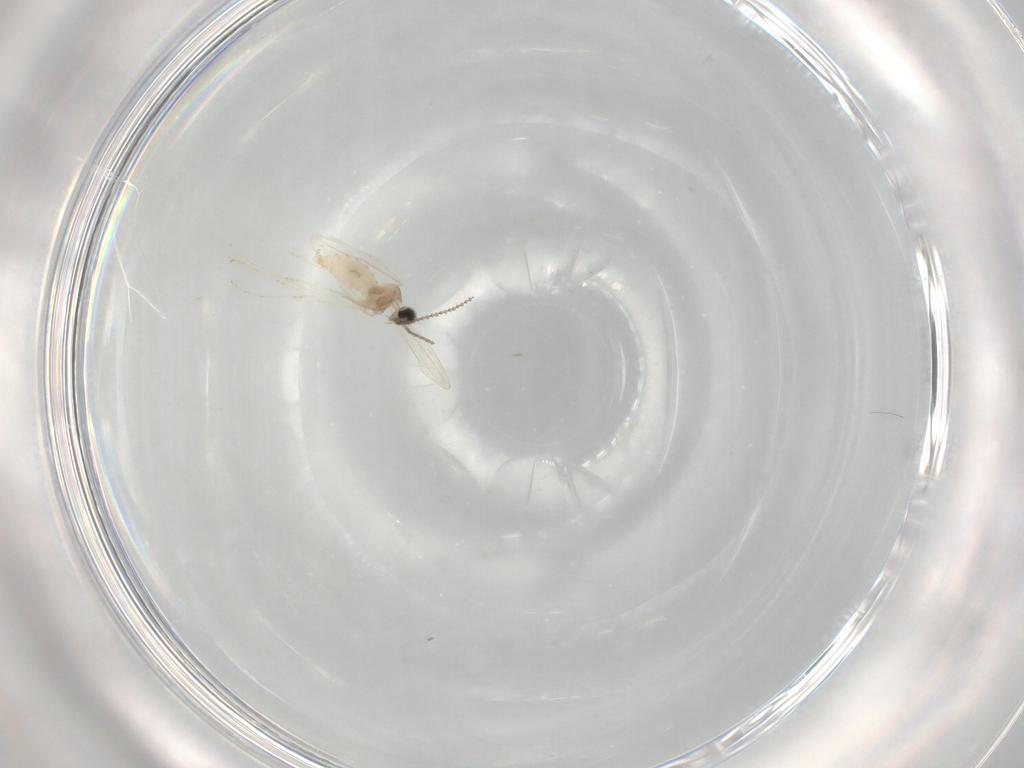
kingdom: Animalia
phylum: Arthropoda
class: Insecta
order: Diptera
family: Cecidomyiidae
